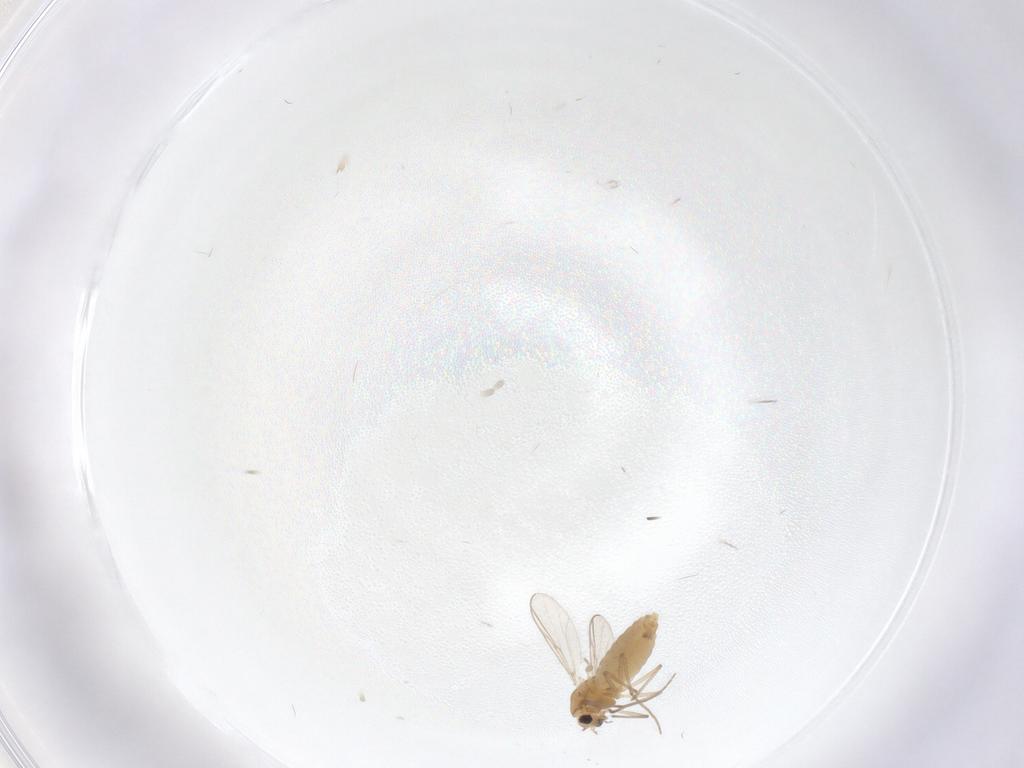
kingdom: Animalia
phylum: Arthropoda
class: Insecta
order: Diptera
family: Chironomidae
